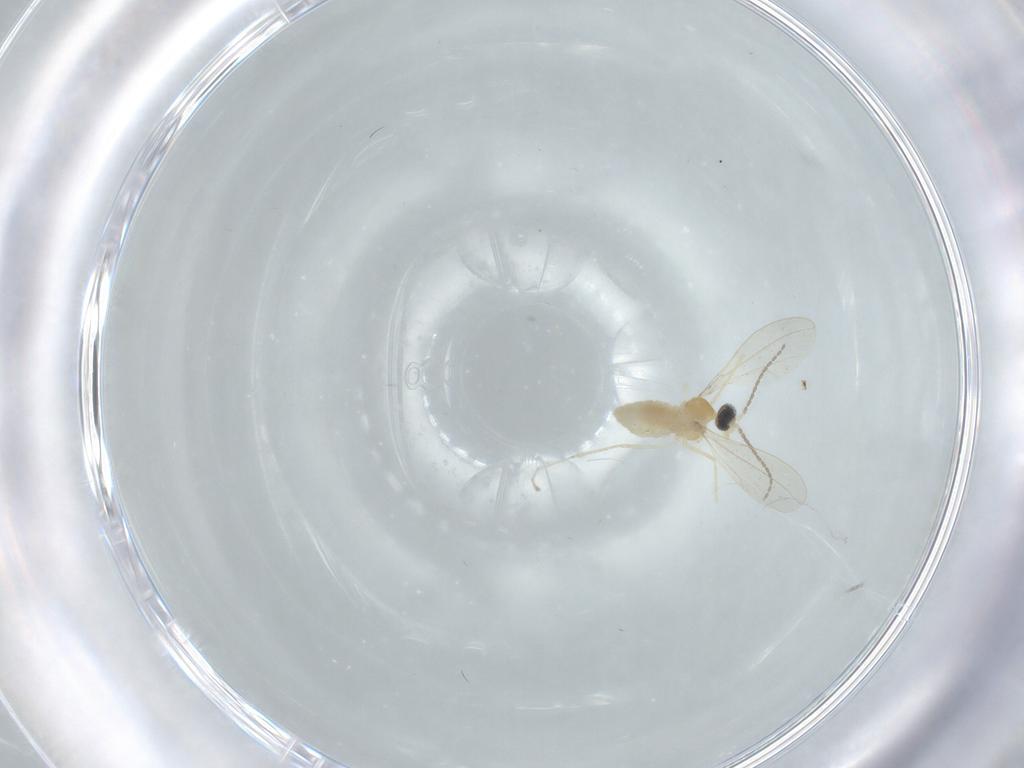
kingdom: Animalia
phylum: Arthropoda
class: Insecta
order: Diptera
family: Cecidomyiidae
